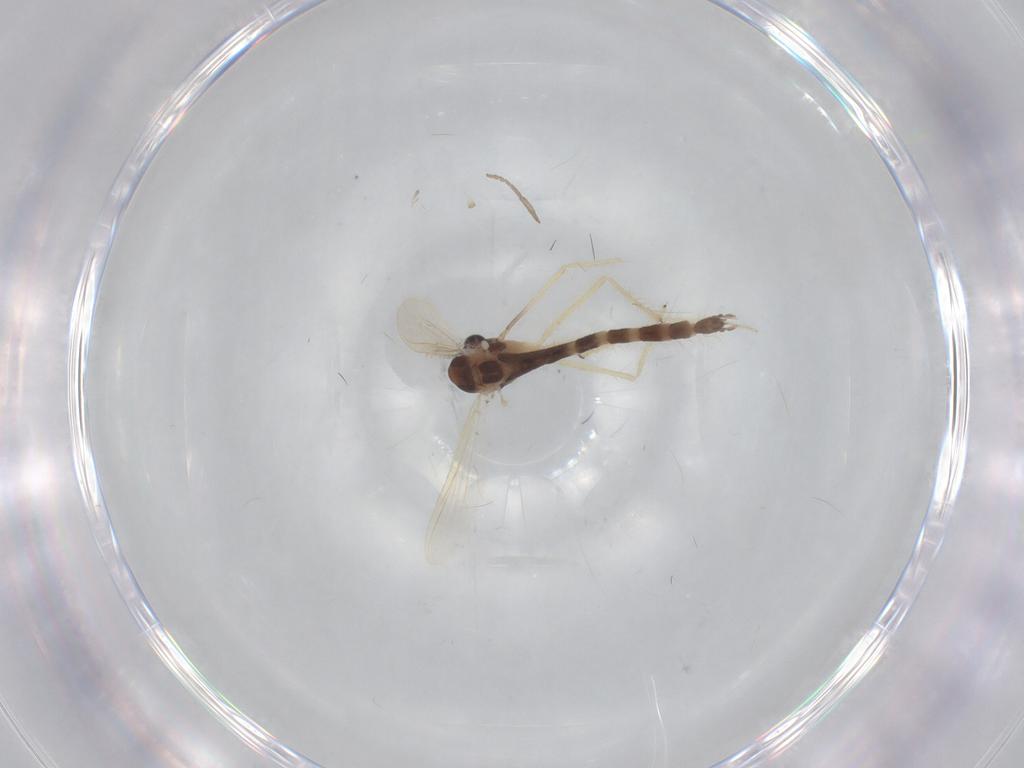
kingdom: Animalia
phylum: Arthropoda
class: Insecta
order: Diptera
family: Chironomidae
